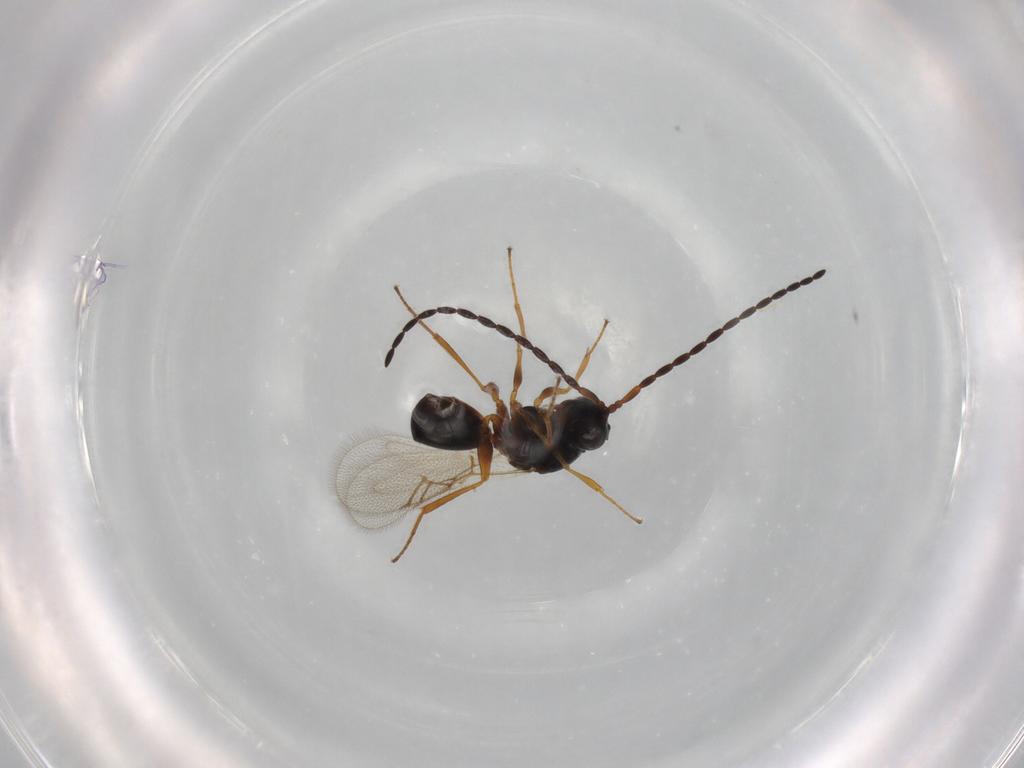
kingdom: Animalia
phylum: Arthropoda
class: Insecta
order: Hymenoptera
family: Figitidae
